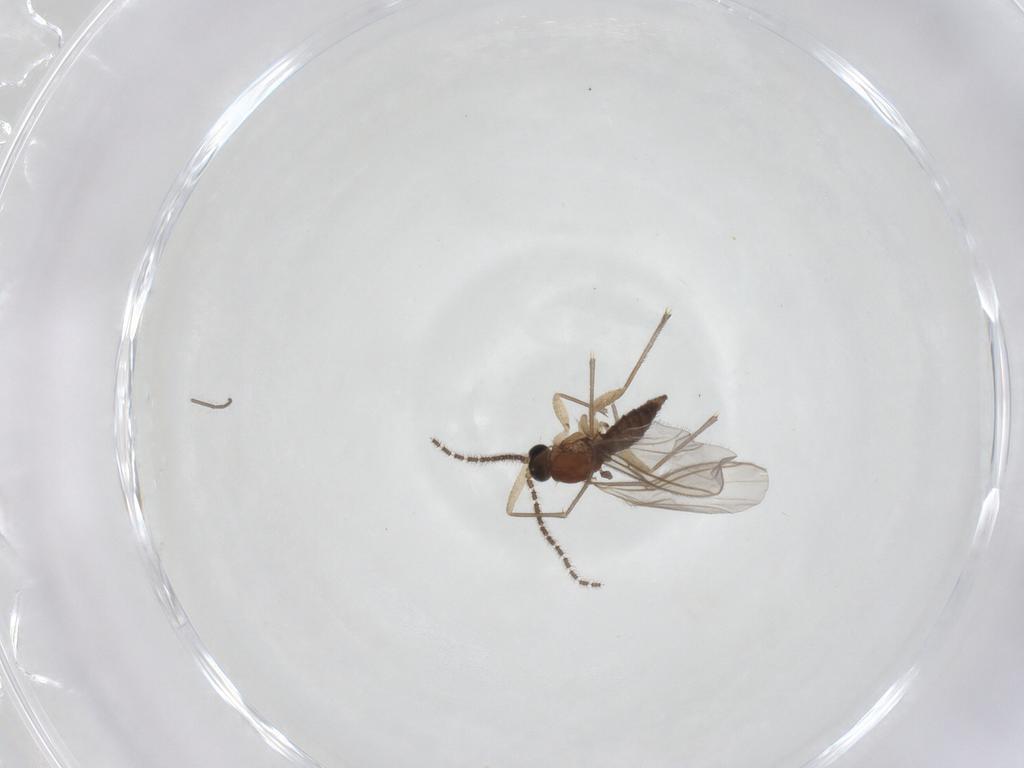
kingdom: Animalia
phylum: Arthropoda
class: Insecta
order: Diptera
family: Sciaridae
